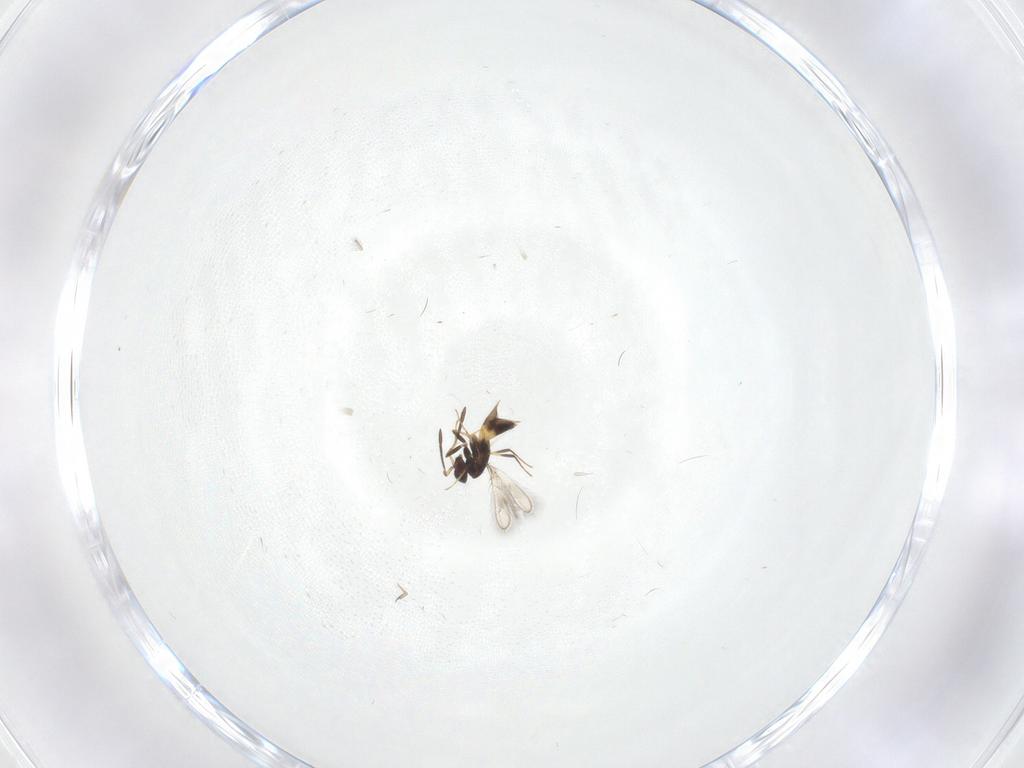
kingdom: Animalia
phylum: Arthropoda
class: Insecta
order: Hymenoptera
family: Mymaridae
